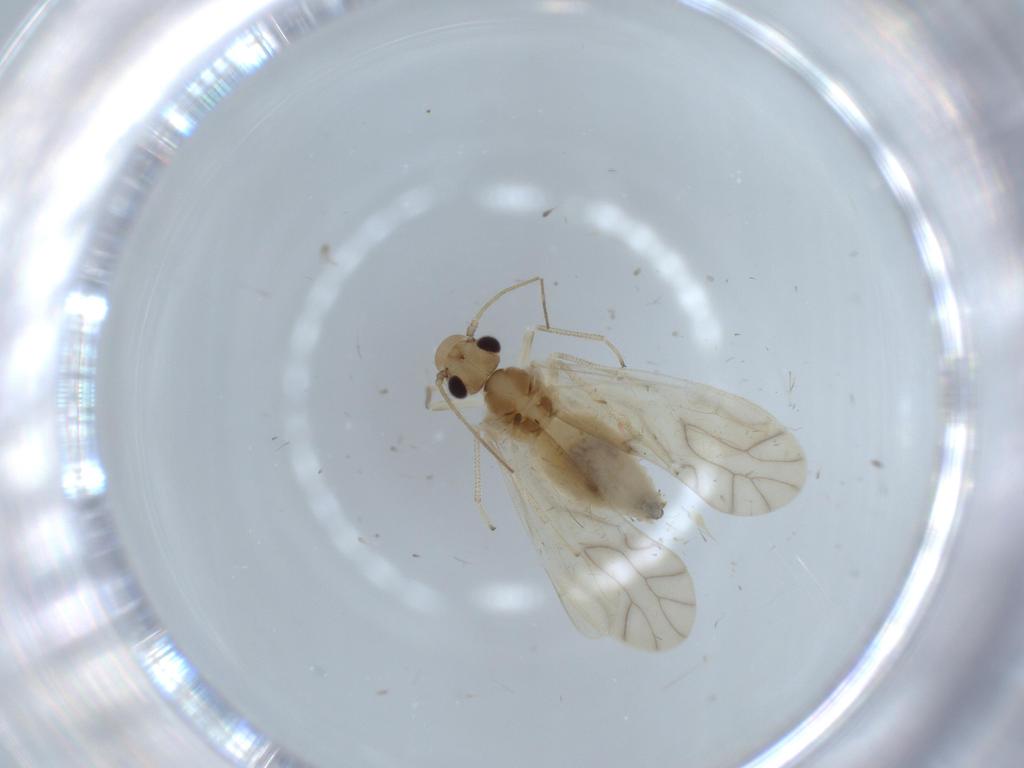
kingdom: Animalia
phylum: Arthropoda
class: Insecta
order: Psocodea
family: Caeciliusidae
